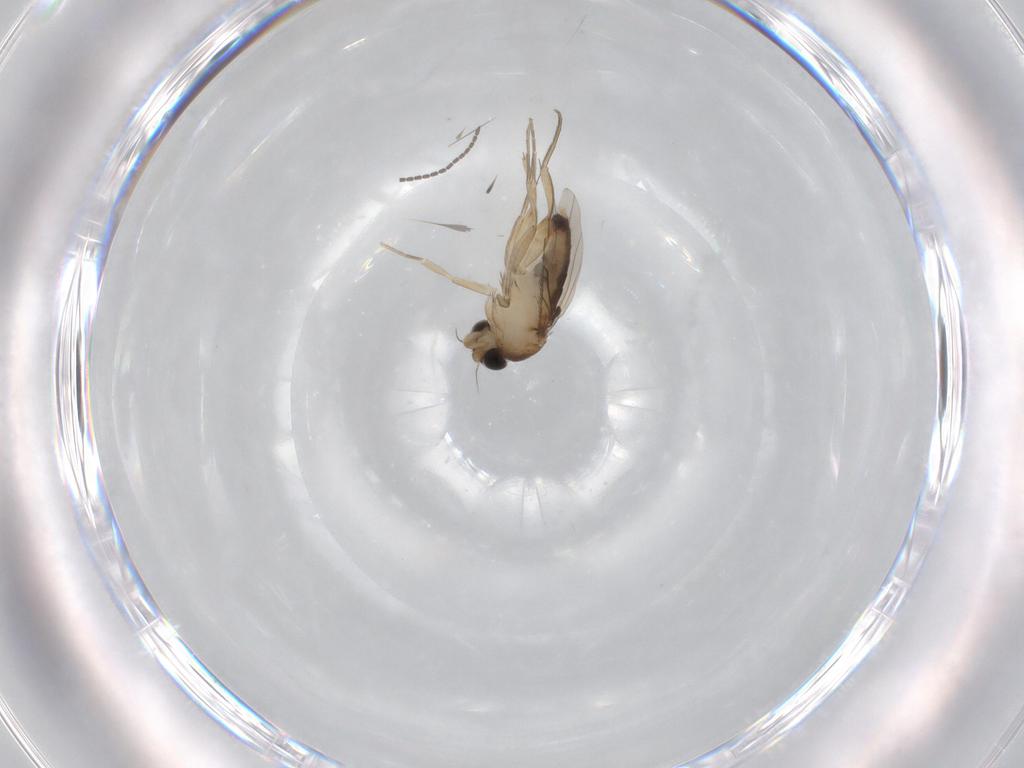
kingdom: Animalia
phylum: Arthropoda
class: Insecta
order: Diptera
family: Phoridae
